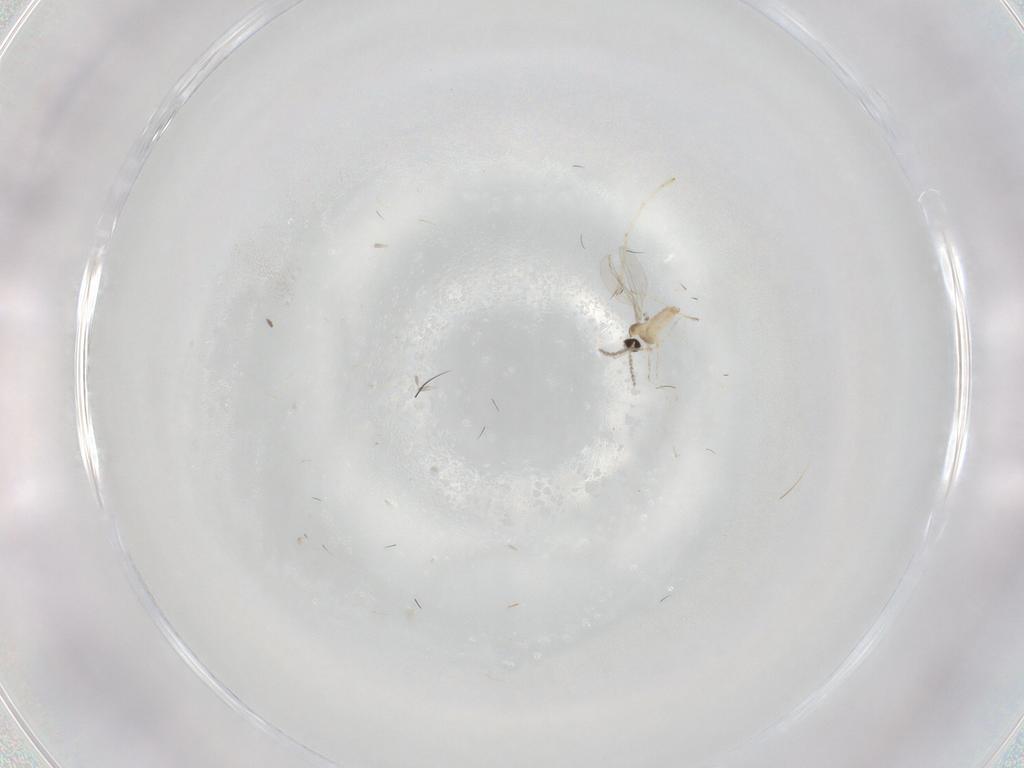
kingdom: Animalia
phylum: Arthropoda
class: Insecta
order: Diptera
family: Cecidomyiidae
